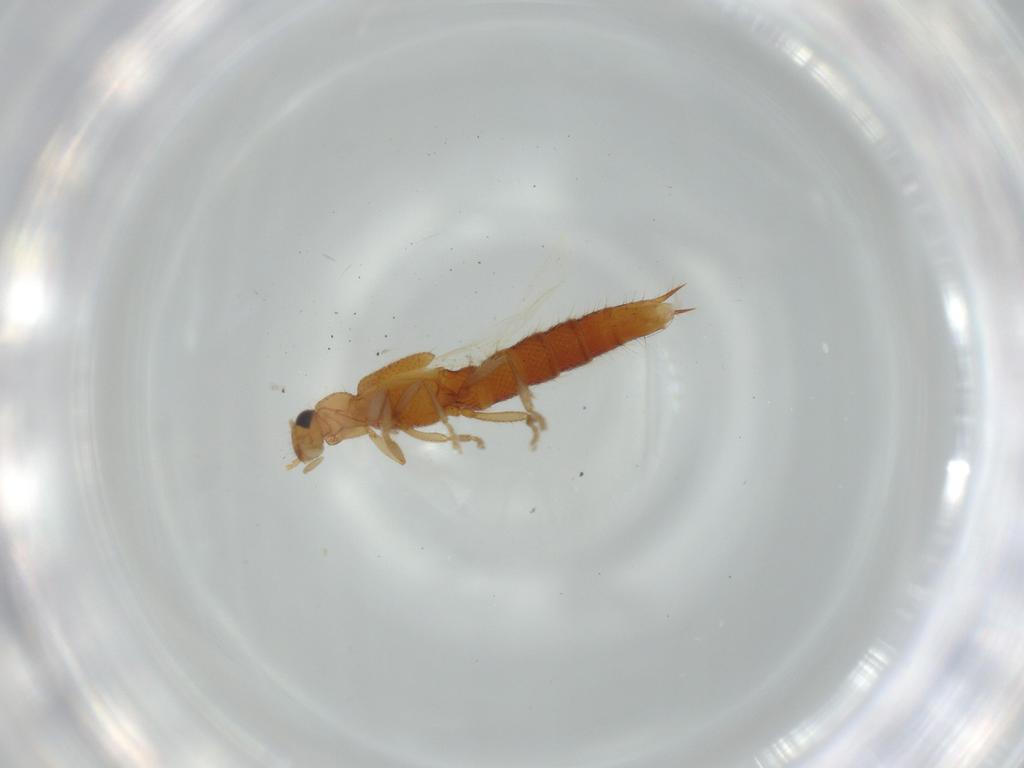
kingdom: Animalia
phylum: Arthropoda
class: Insecta
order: Coleoptera
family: Staphylinidae
